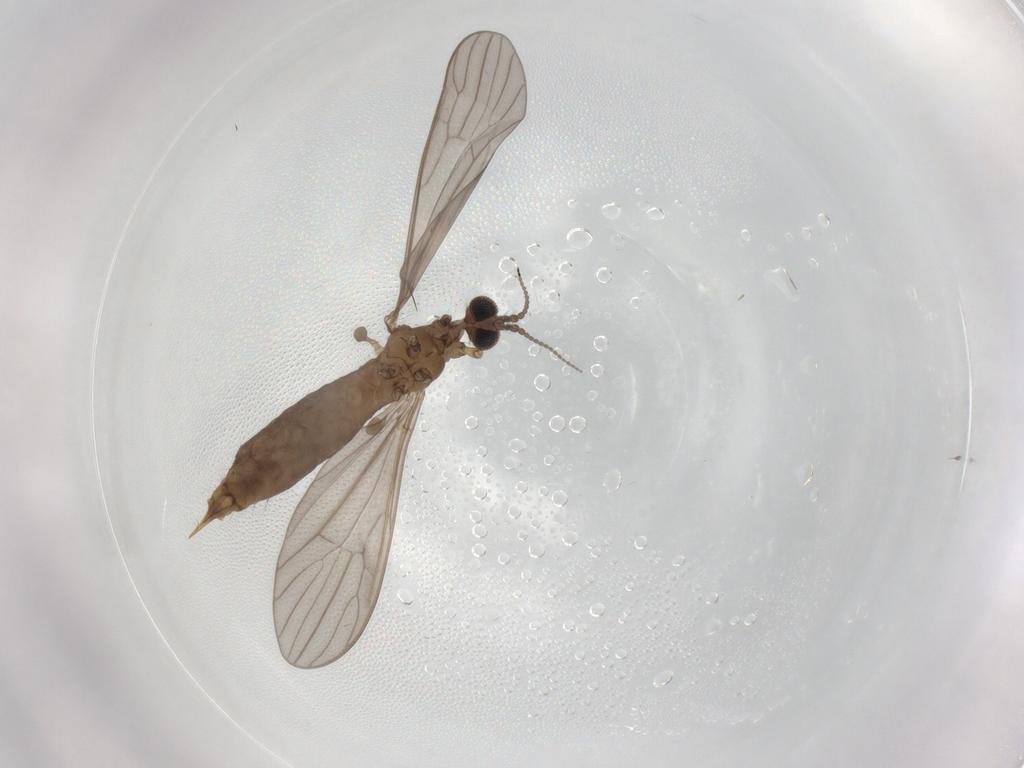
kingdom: Animalia
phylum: Arthropoda
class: Insecta
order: Diptera
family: Limoniidae
